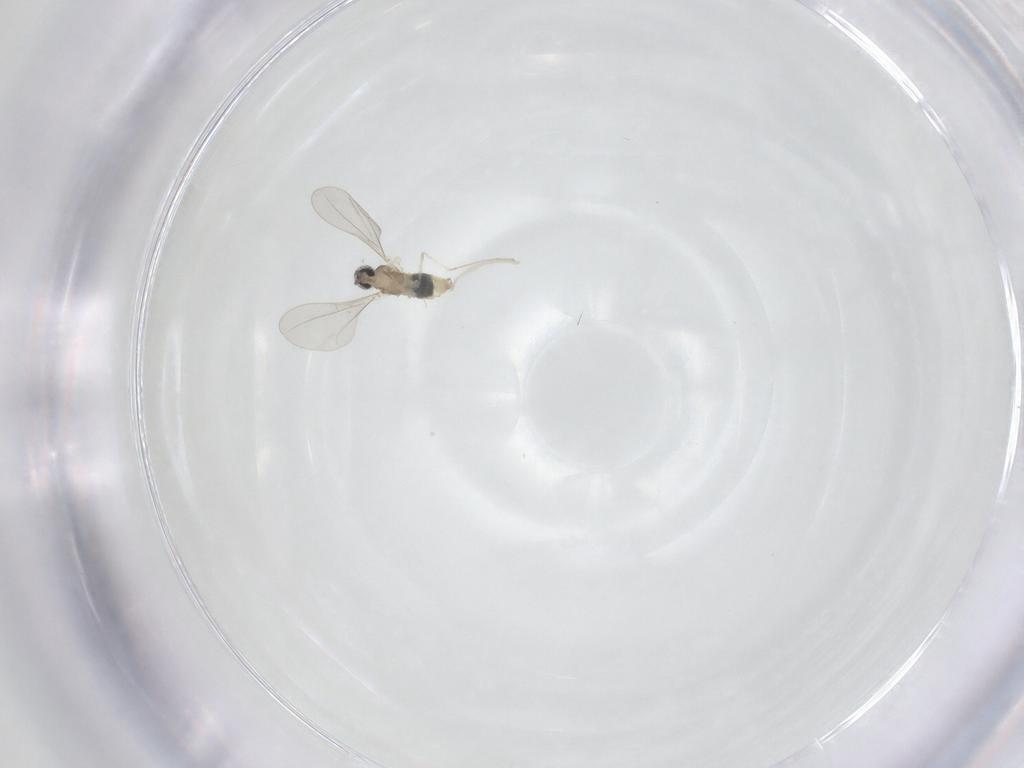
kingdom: Animalia
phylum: Arthropoda
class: Insecta
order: Diptera
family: Cecidomyiidae
